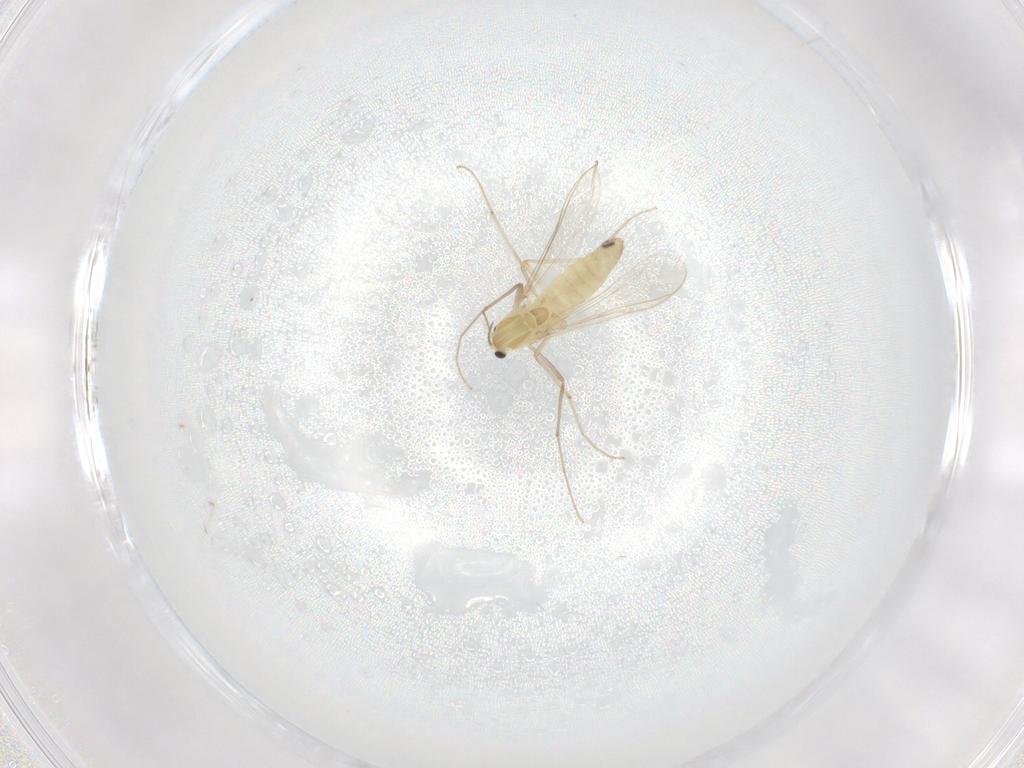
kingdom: Animalia
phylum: Arthropoda
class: Insecta
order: Diptera
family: Chironomidae
